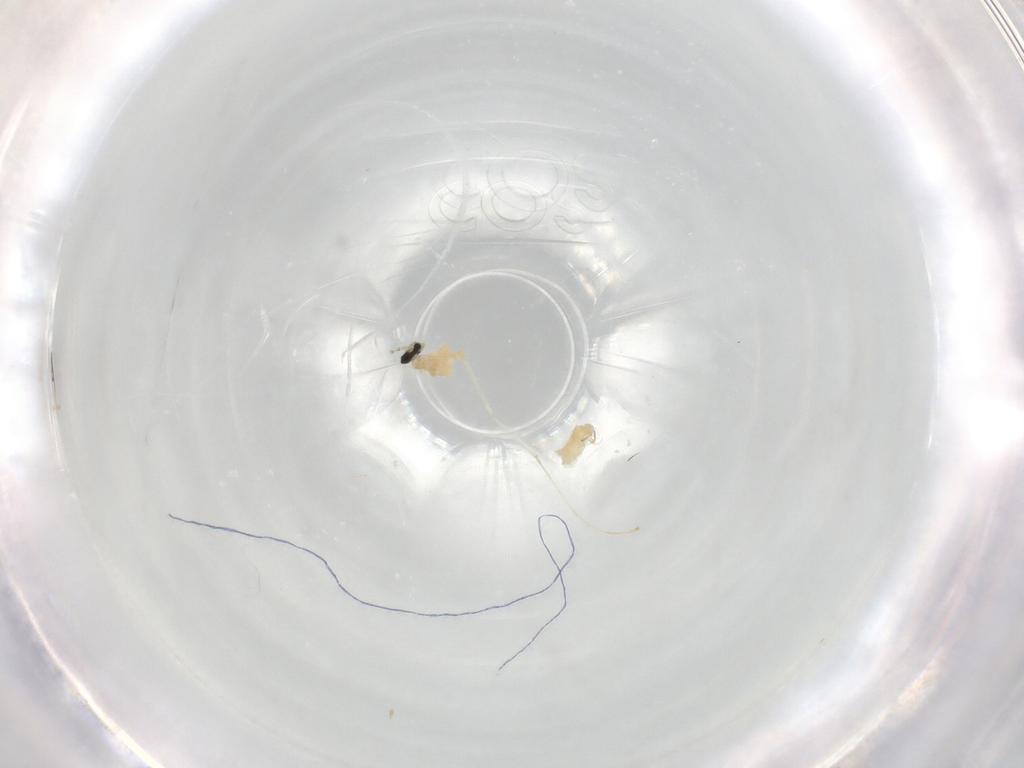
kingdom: Animalia
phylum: Arthropoda
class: Insecta
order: Diptera
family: Cecidomyiidae
